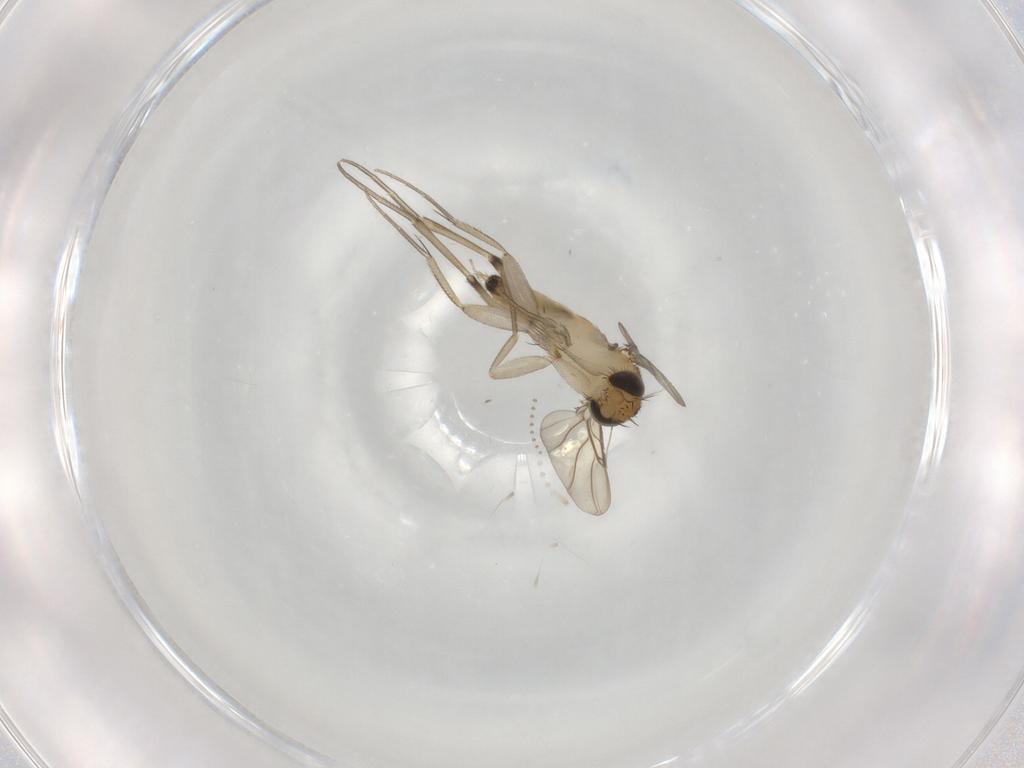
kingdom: Animalia
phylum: Arthropoda
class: Insecta
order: Diptera
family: Phoridae
